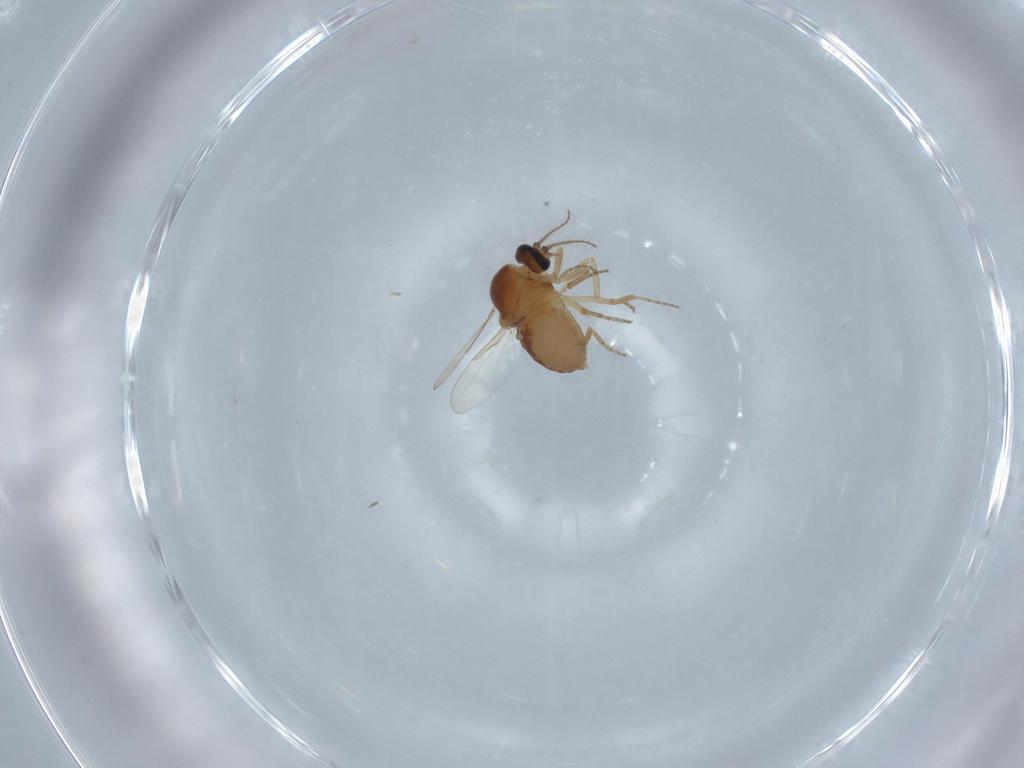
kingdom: Animalia
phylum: Arthropoda
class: Insecta
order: Diptera
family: Ceratopogonidae
